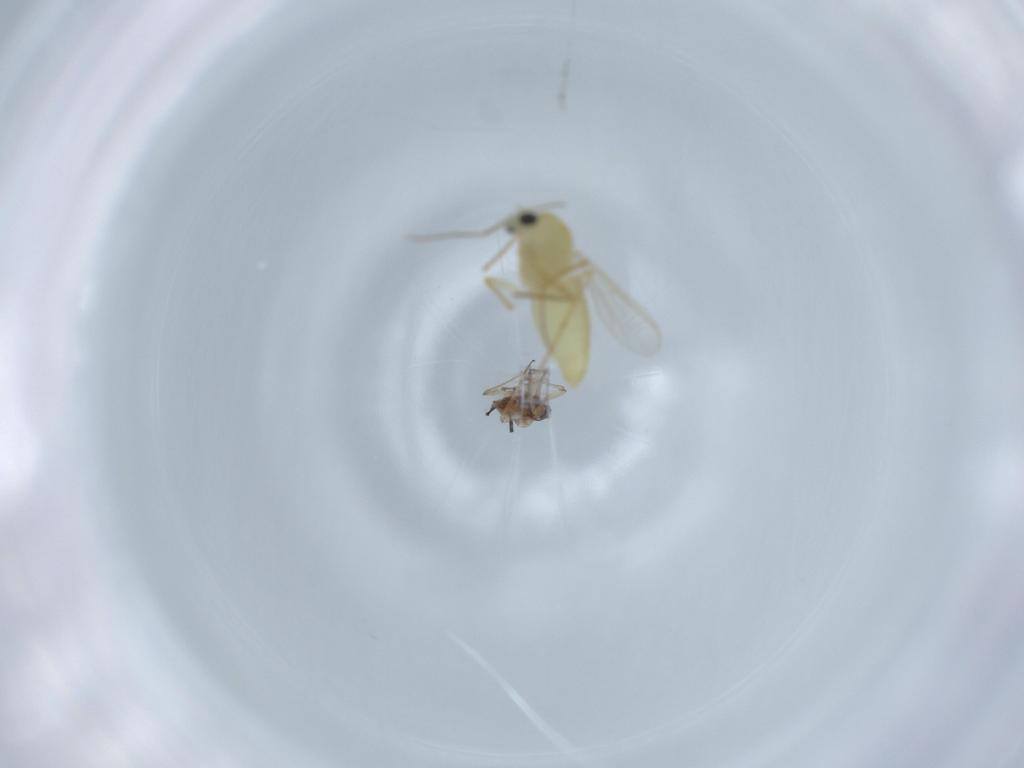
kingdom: Animalia
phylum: Arthropoda
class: Insecta
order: Diptera
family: Chironomidae
